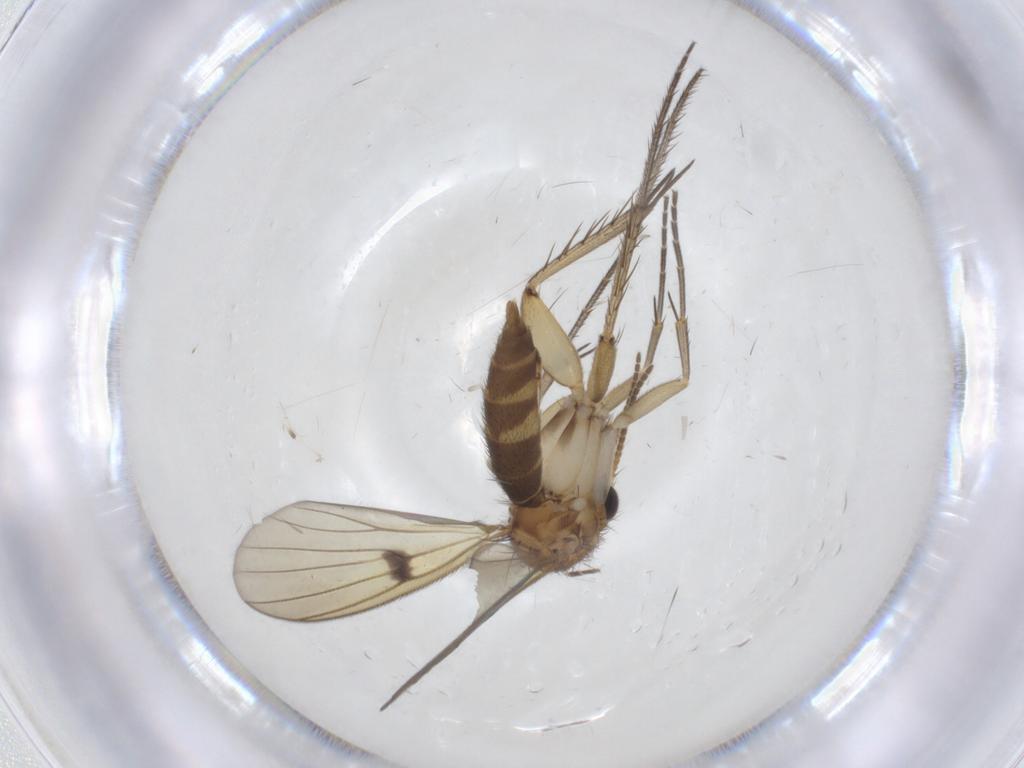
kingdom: Animalia
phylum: Arthropoda
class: Insecta
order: Diptera
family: Mycetophilidae
